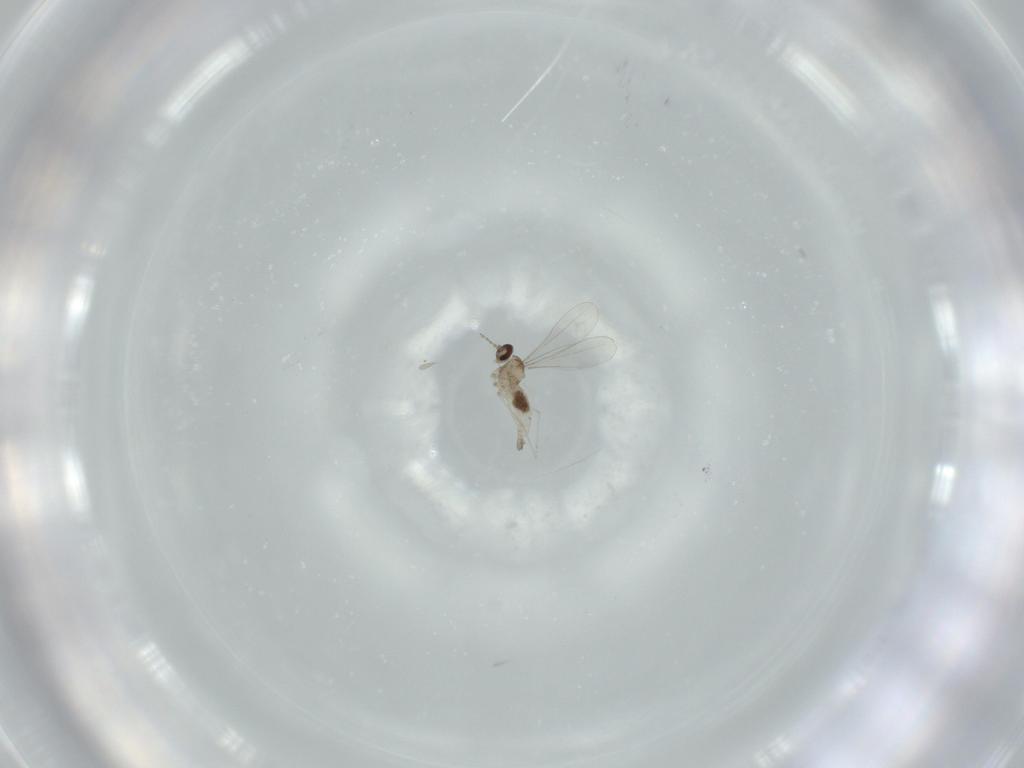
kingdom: Animalia
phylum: Arthropoda
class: Insecta
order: Diptera
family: Cecidomyiidae
